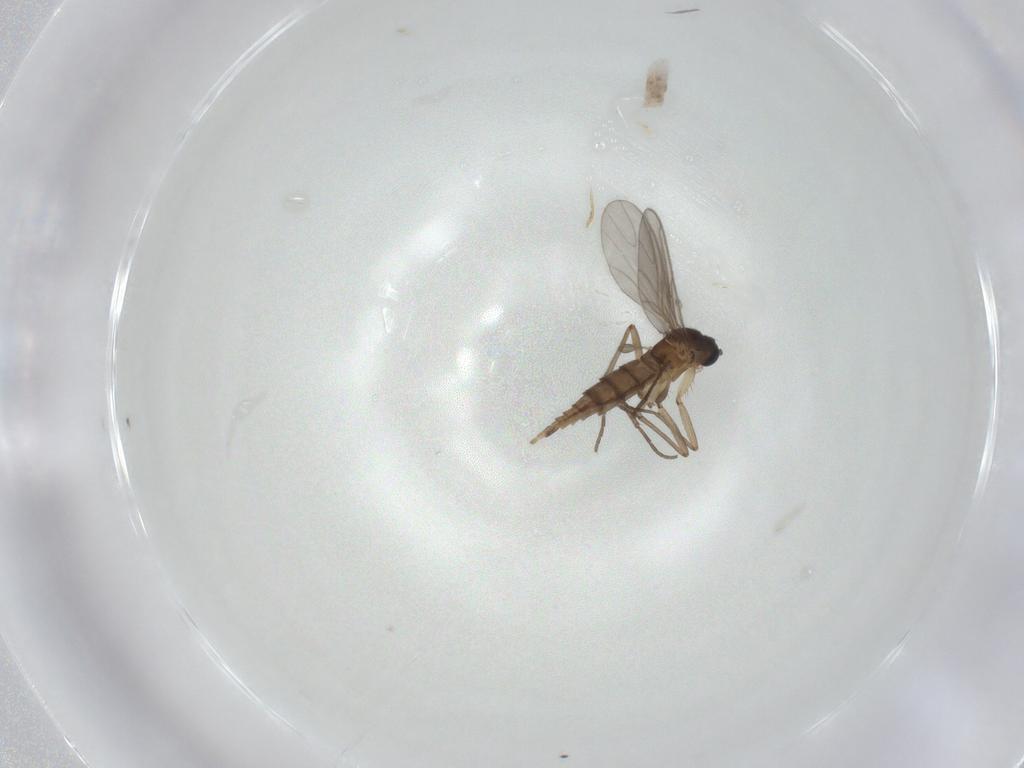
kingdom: Animalia
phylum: Arthropoda
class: Insecta
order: Diptera
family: Sciaridae
